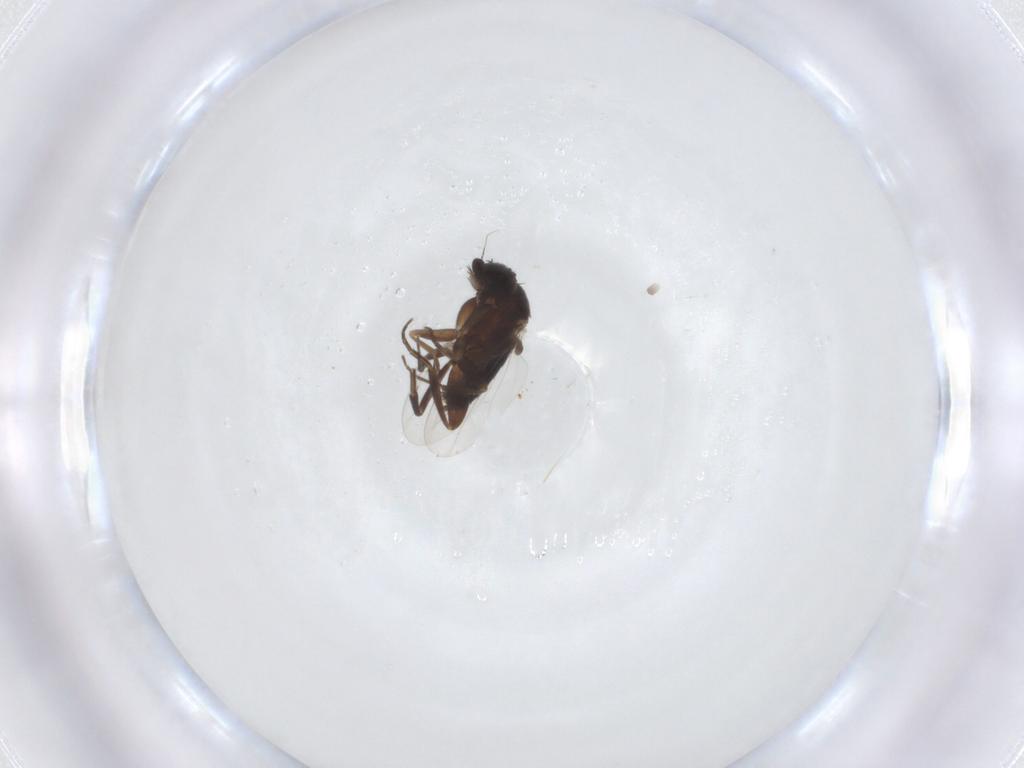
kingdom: Animalia
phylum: Arthropoda
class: Insecta
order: Diptera
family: Phoridae
